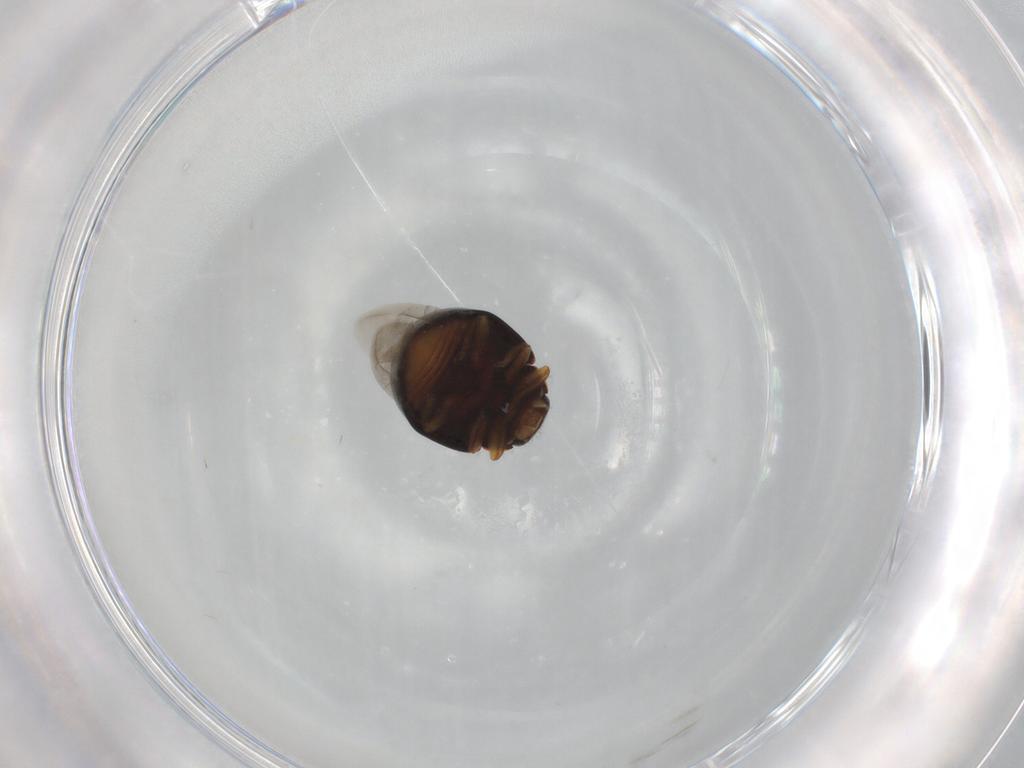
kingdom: Animalia
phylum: Arthropoda
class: Insecta
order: Coleoptera
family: Coccinellidae
